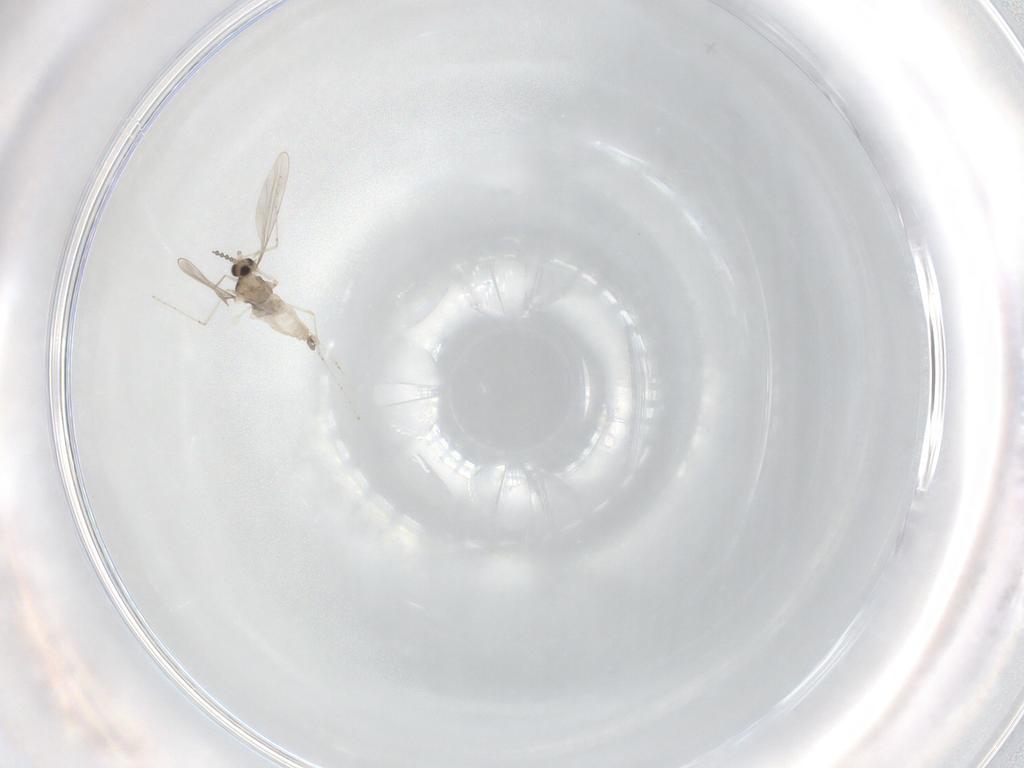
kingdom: Animalia
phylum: Arthropoda
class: Insecta
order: Diptera
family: Cecidomyiidae
